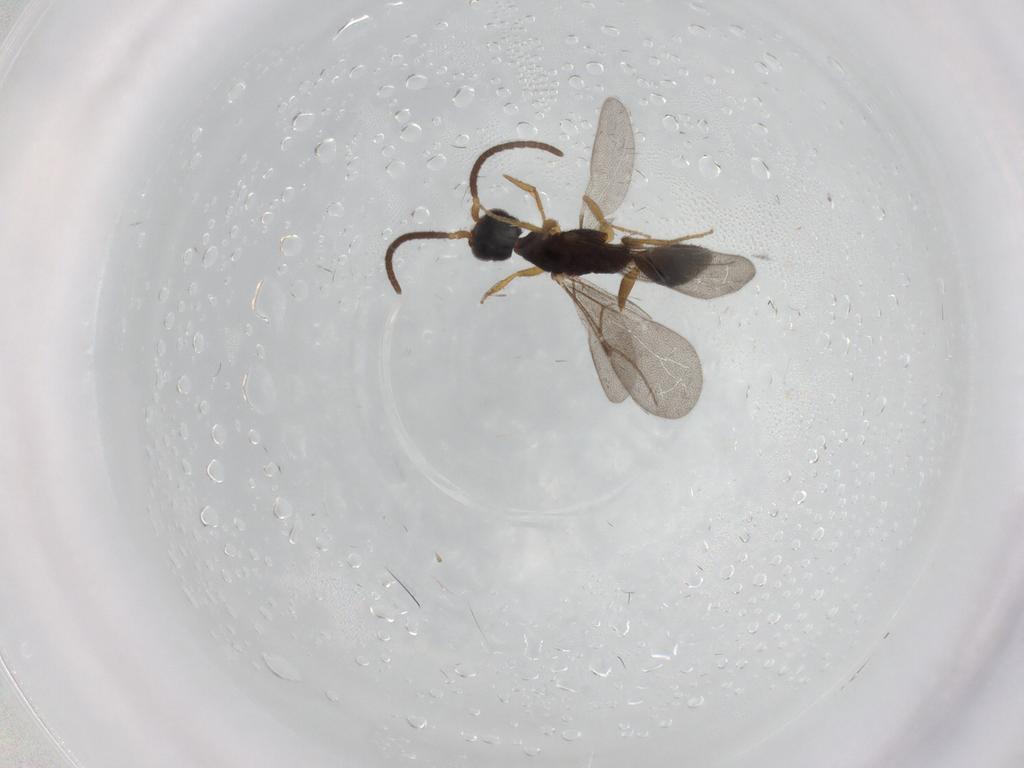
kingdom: Animalia
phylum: Arthropoda
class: Insecta
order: Hymenoptera
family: Bethylidae
